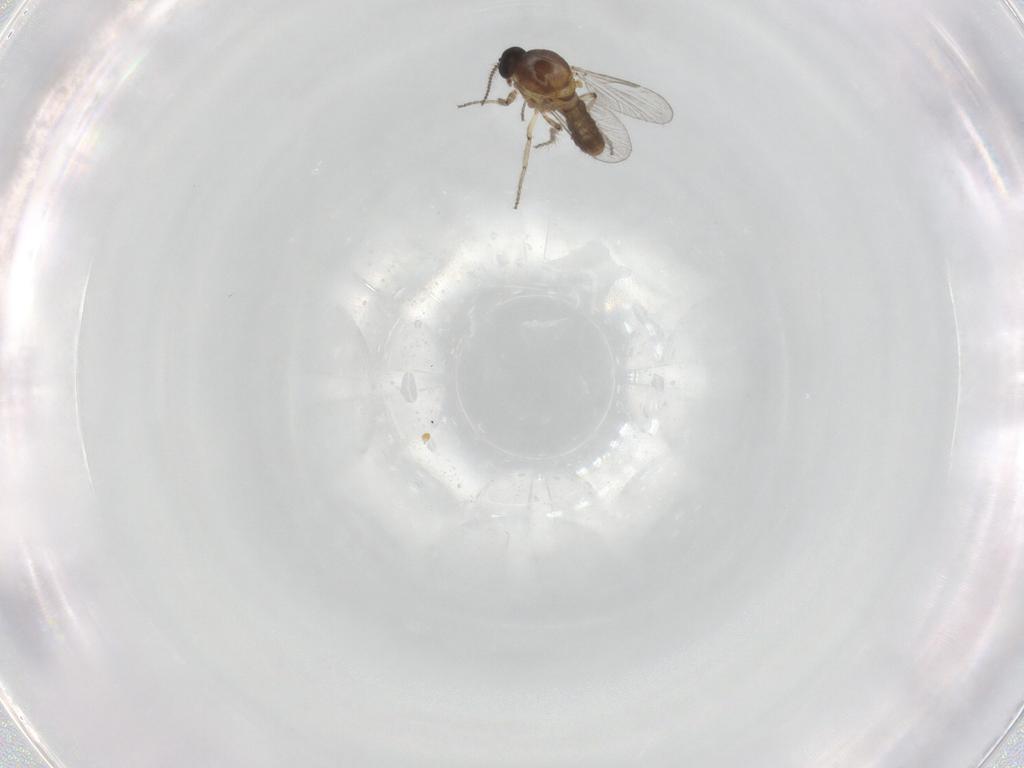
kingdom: Animalia
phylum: Arthropoda
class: Insecta
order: Diptera
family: Ceratopogonidae
